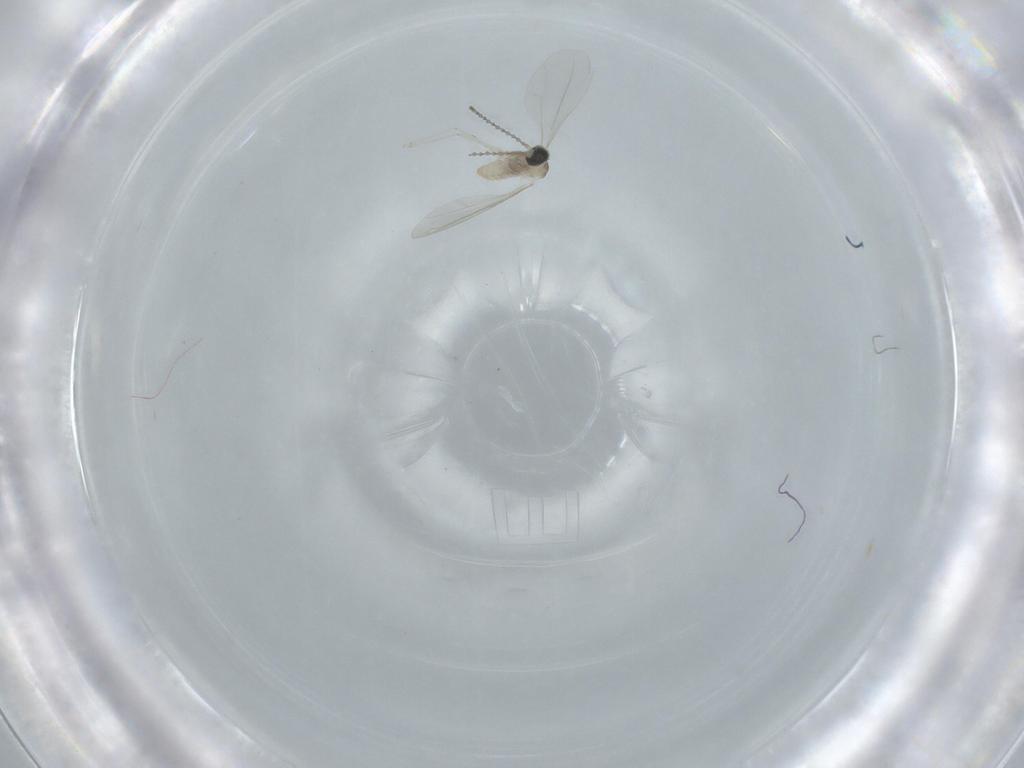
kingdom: Animalia
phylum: Arthropoda
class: Insecta
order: Diptera
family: Cecidomyiidae
